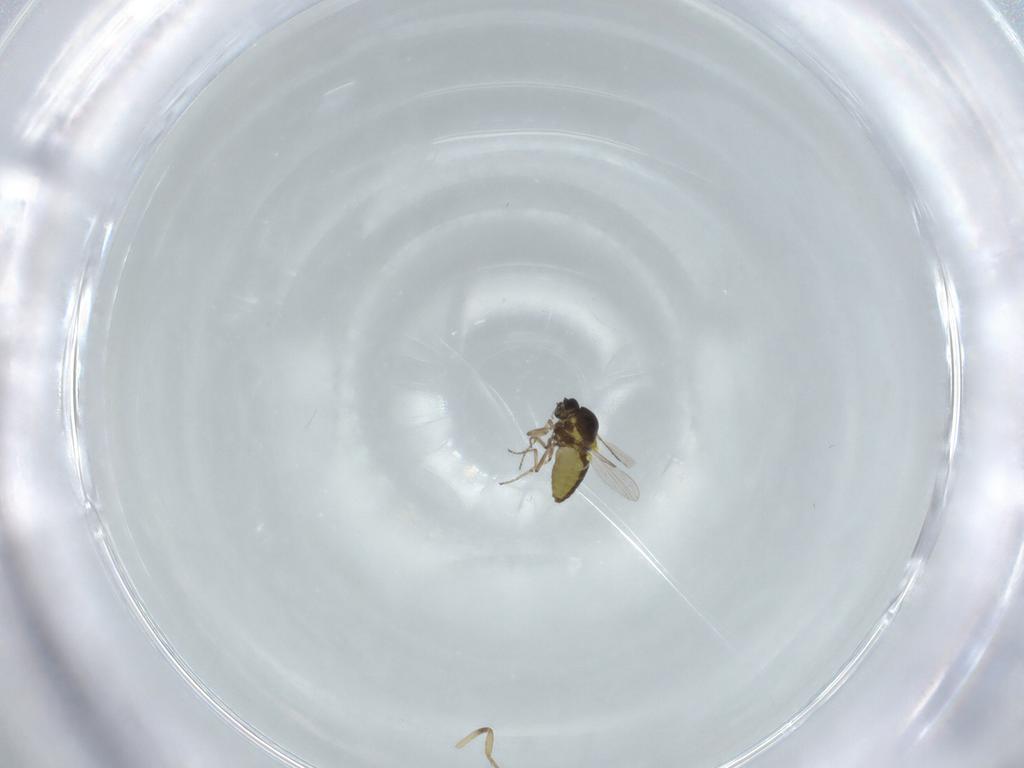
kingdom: Animalia
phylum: Arthropoda
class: Insecta
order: Diptera
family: Ceratopogonidae
